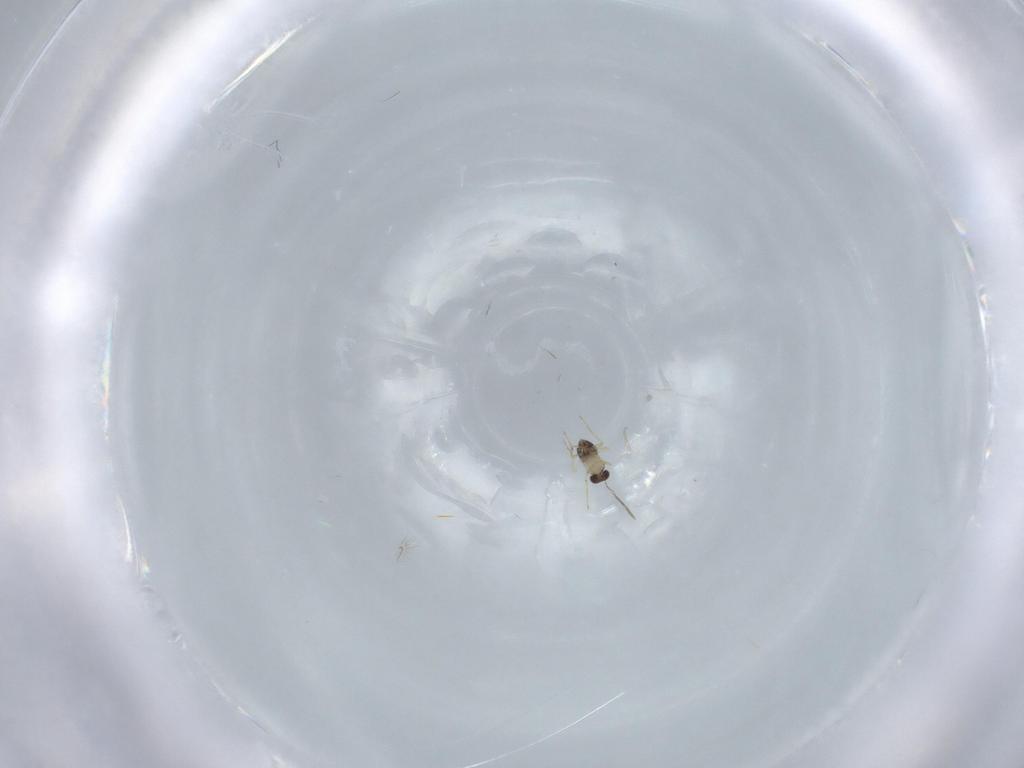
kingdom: Animalia
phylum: Arthropoda
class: Insecta
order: Hymenoptera
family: Mymaridae
